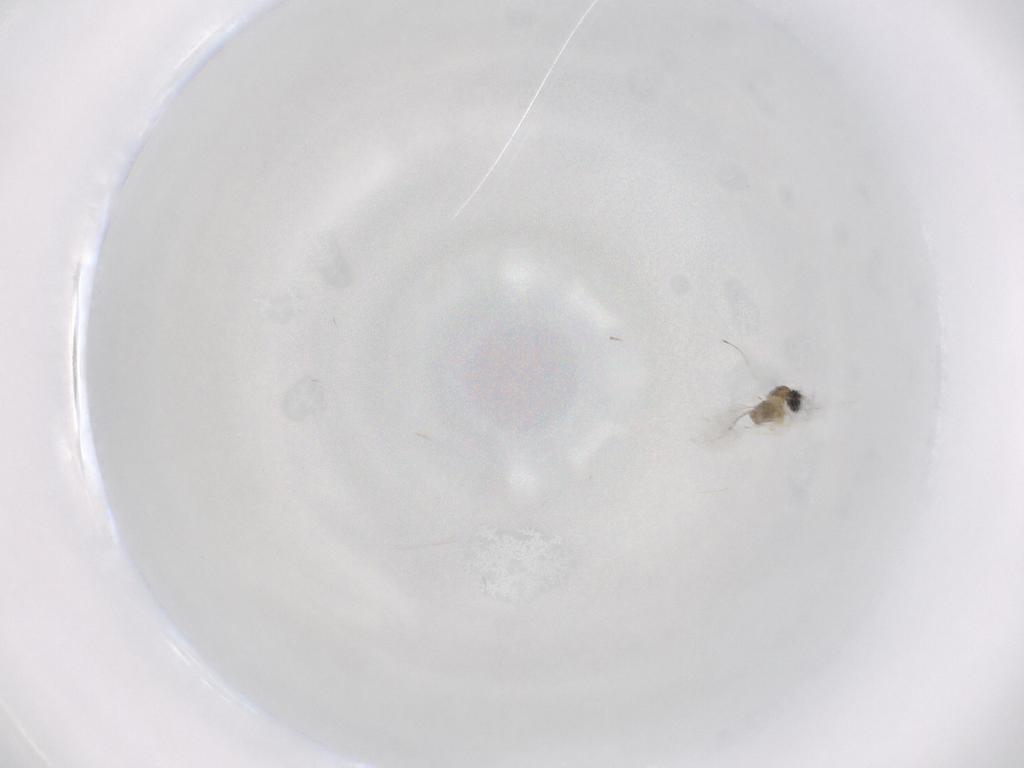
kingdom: Animalia
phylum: Arthropoda
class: Insecta
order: Diptera
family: Cecidomyiidae
